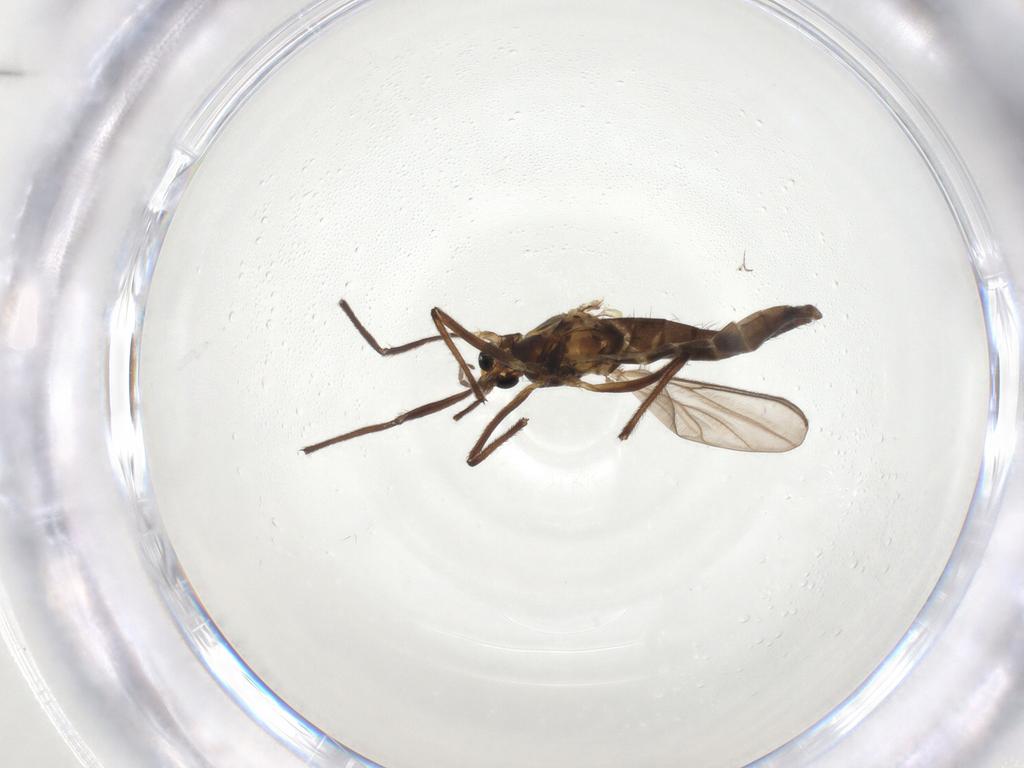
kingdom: Animalia
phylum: Arthropoda
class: Insecta
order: Diptera
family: Chironomidae
